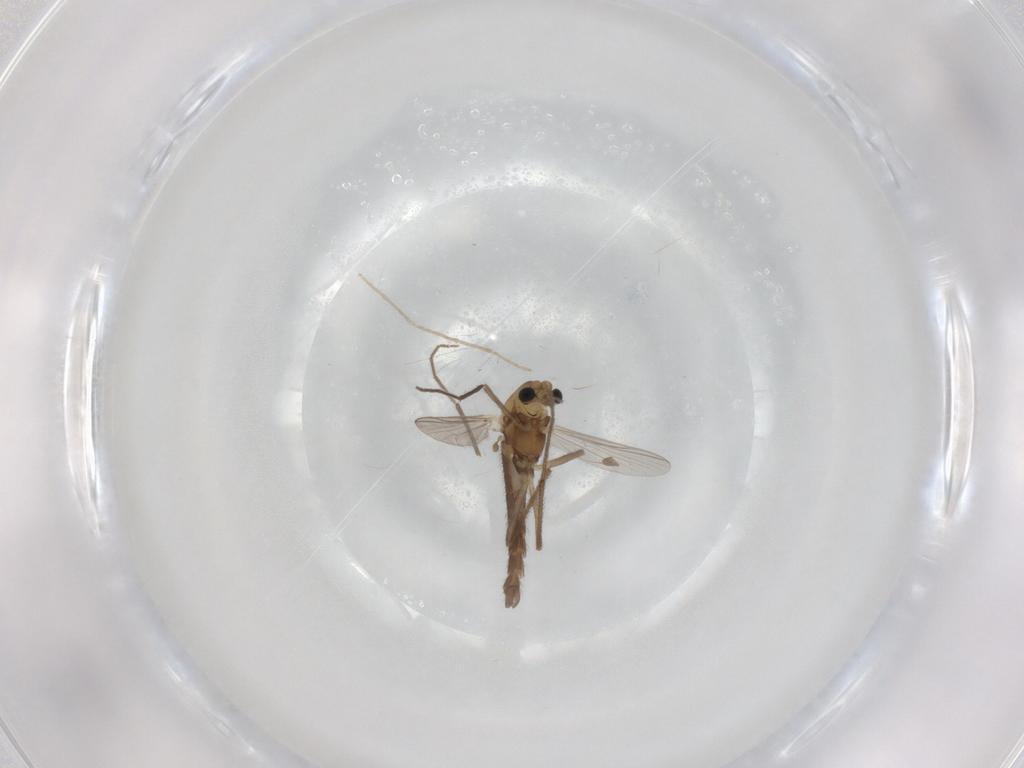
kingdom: Animalia
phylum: Arthropoda
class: Insecta
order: Diptera
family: Chironomidae
